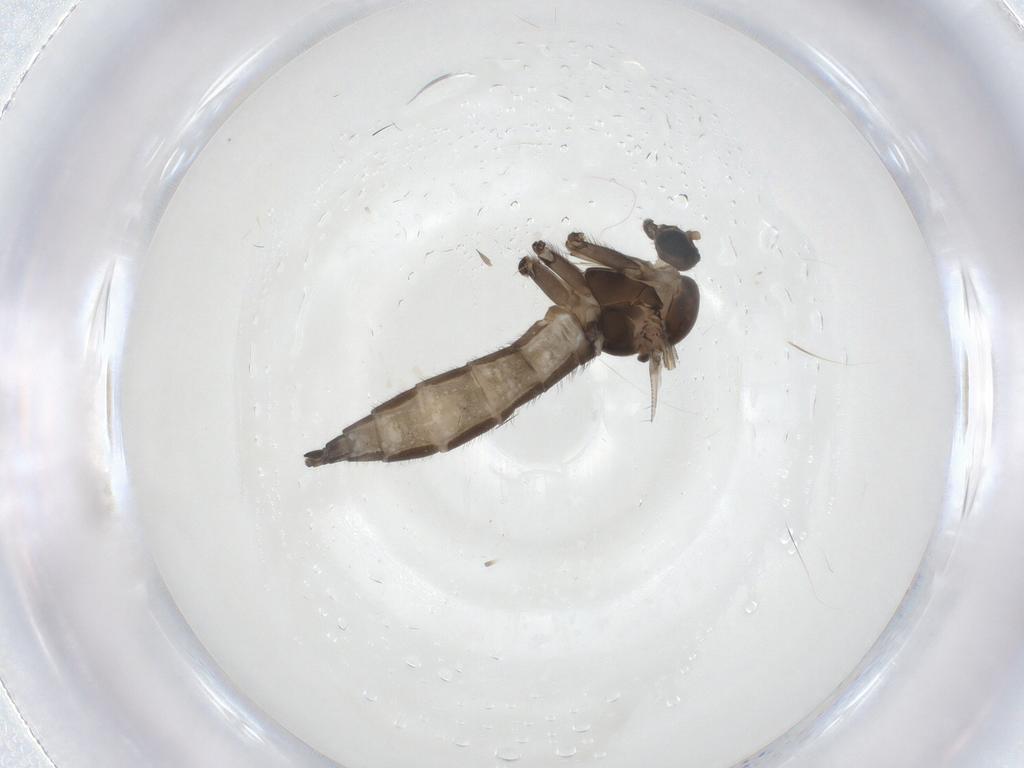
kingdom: Animalia
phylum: Arthropoda
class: Insecta
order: Diptera
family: Sciaridae
